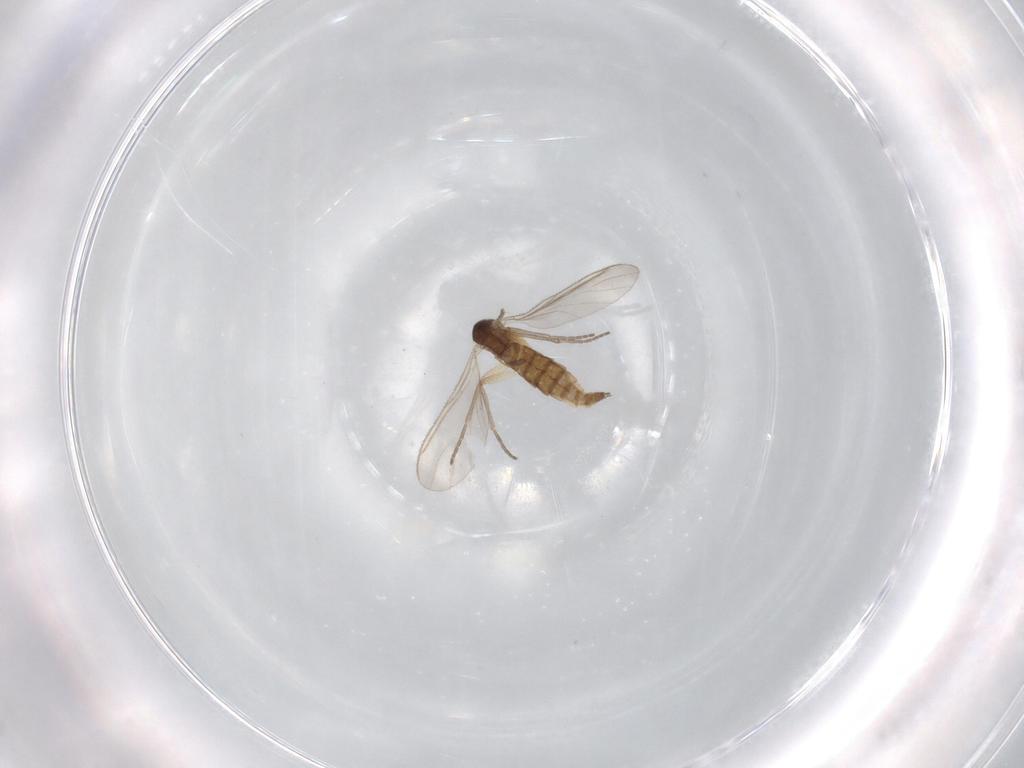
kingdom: Animalia
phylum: Arthropoda
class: Insecta
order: Diptera
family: Sciaridae
